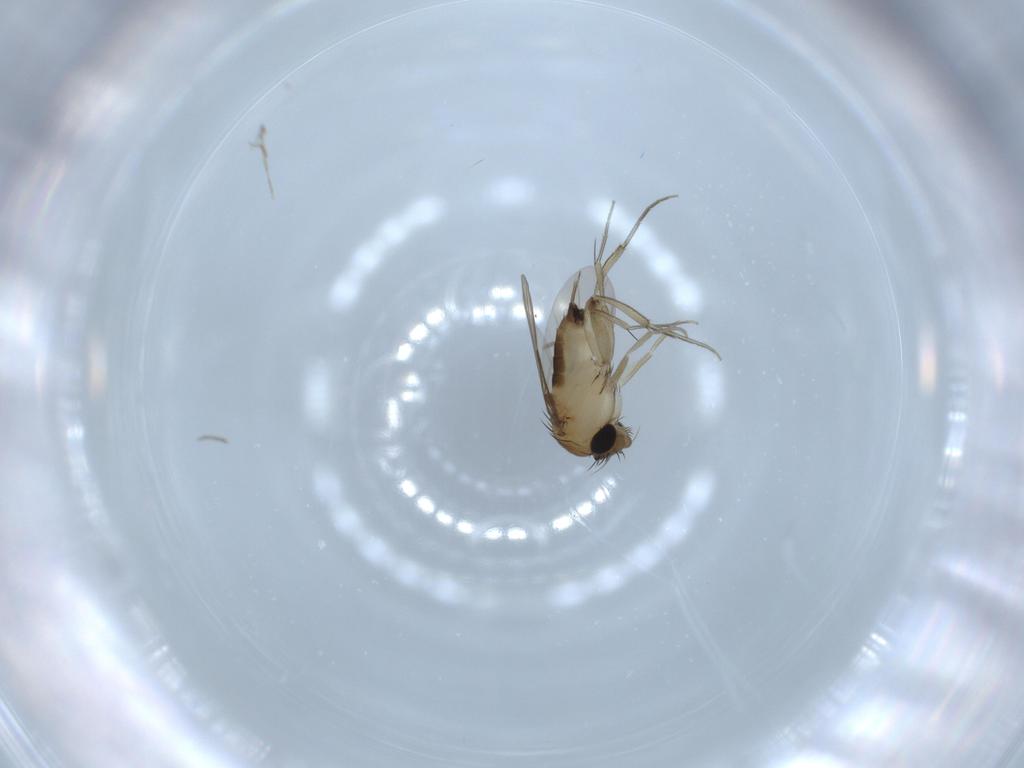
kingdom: Animalia
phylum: Arthropoda
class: Insecta
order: Diptera
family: Phoridae
